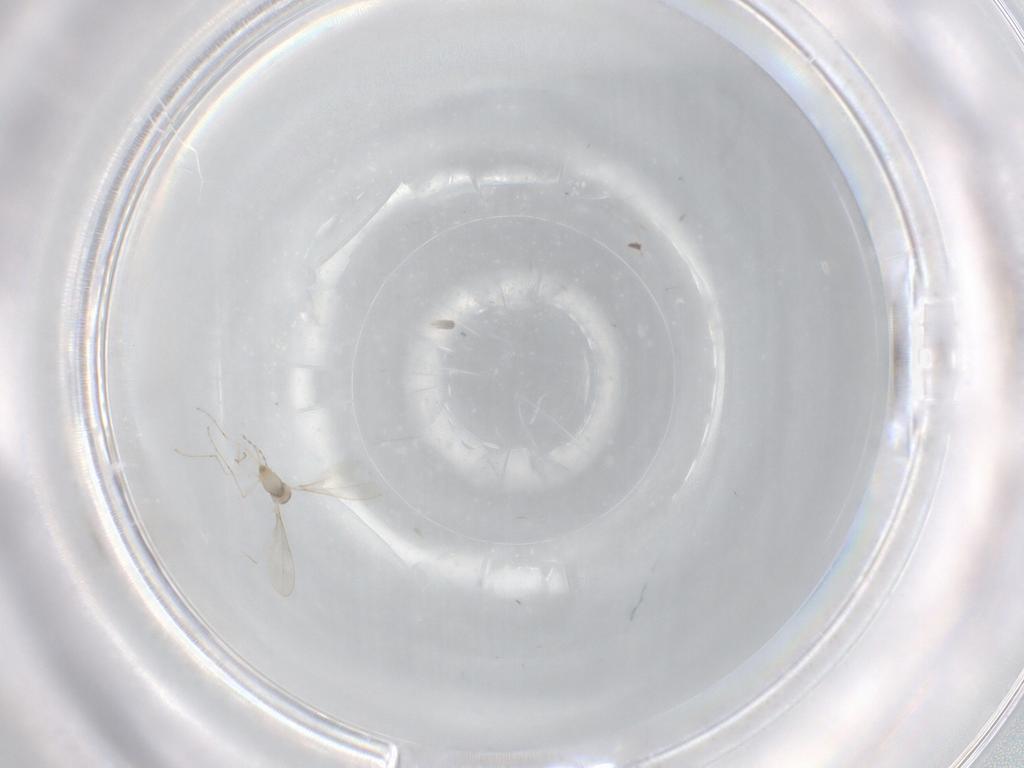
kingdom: Animalia
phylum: Arthropoda
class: Insecta
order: Diptera
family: Cecidomyiidae
